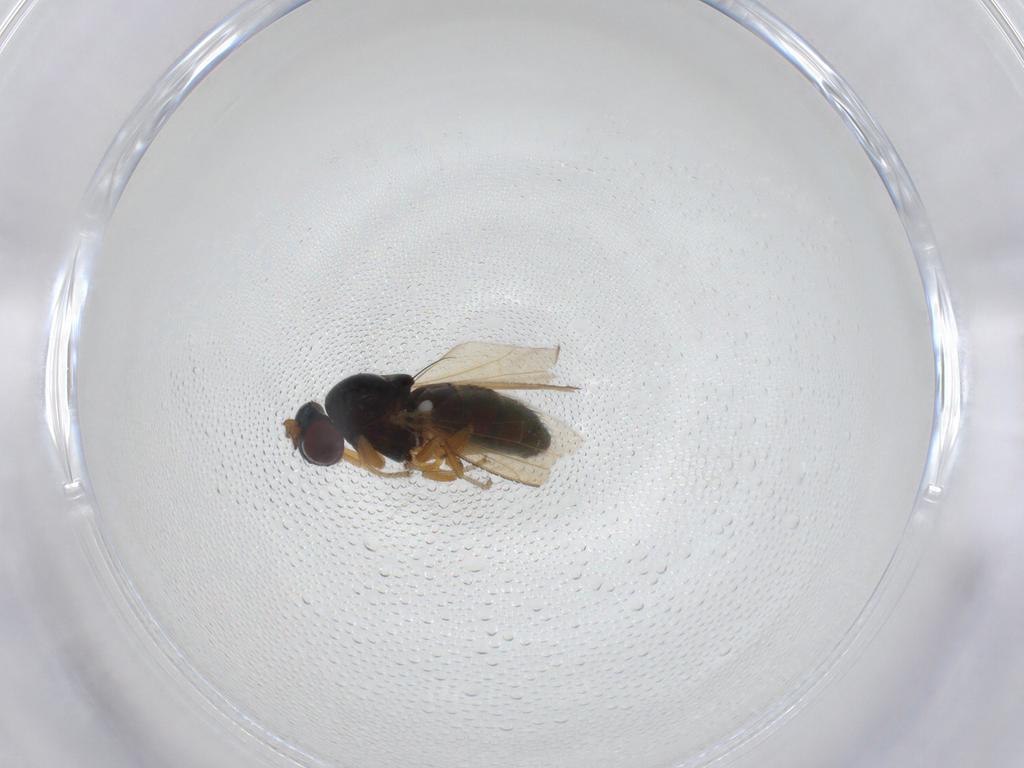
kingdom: Animalia
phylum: Arthropoda
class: Insecta
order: Diptera
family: Ephydridae
